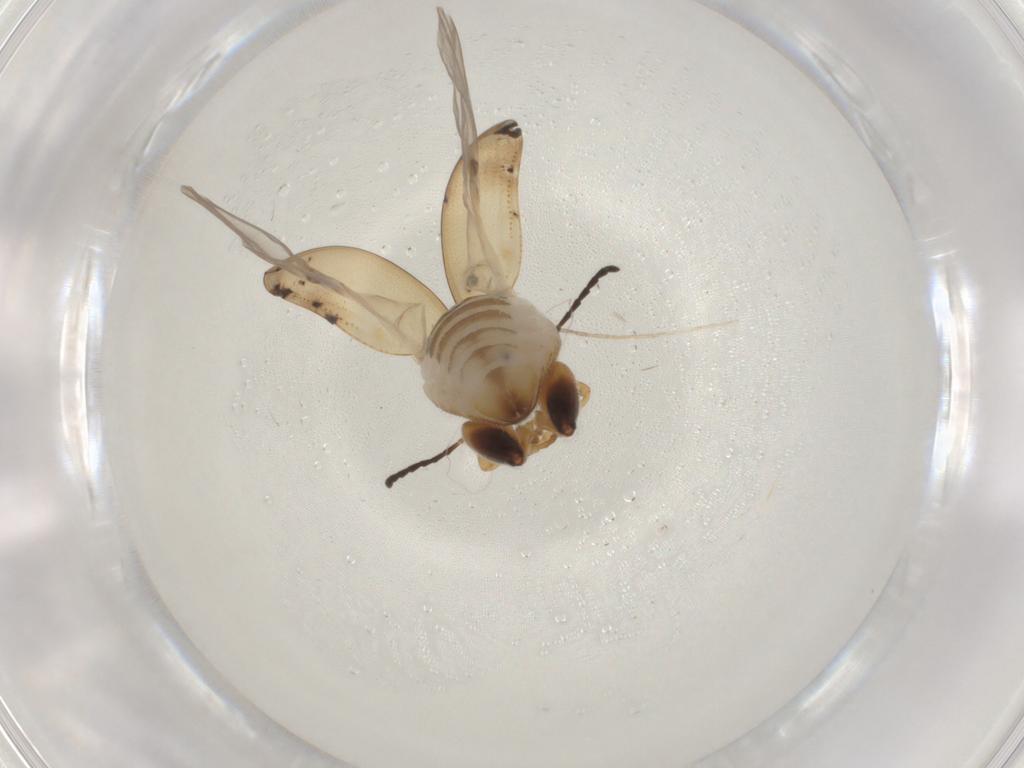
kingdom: Animalia
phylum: Arthropoda
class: Insecta
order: Coleoptera
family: Chrysomelidae
